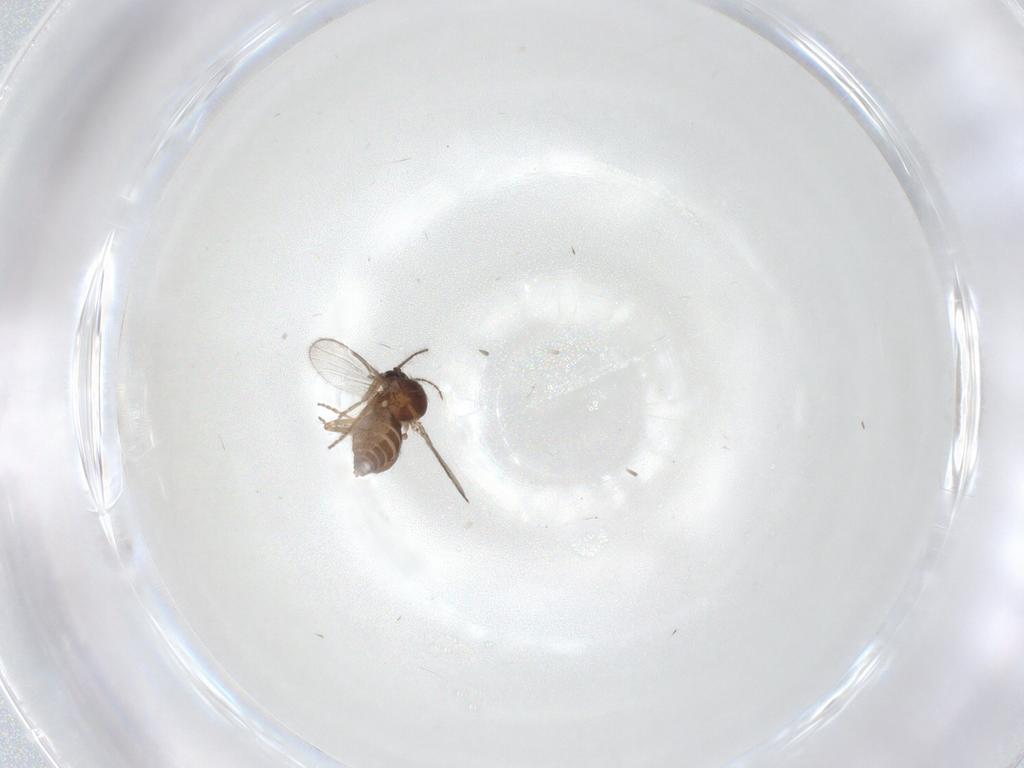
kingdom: Animalia
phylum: Arthropoda
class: Insecta
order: Diptera
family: Ceratopogonidae
